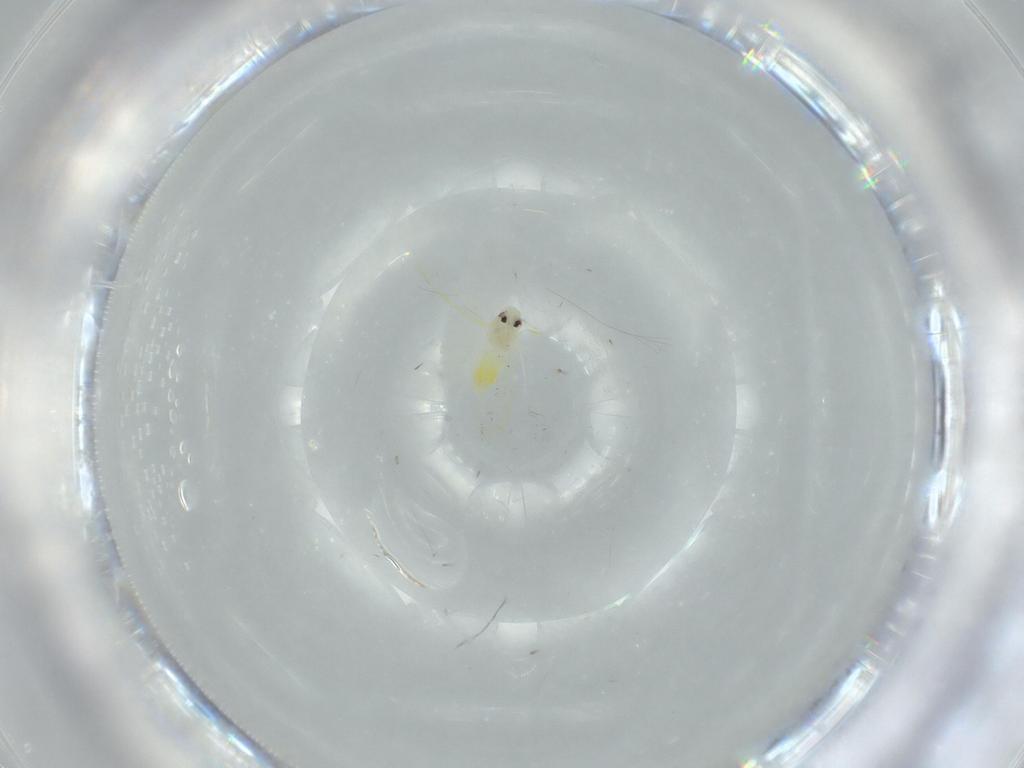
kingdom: Animalia
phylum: Arthropoda
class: Insecta
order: Hemiptera
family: Aleyrodidae
